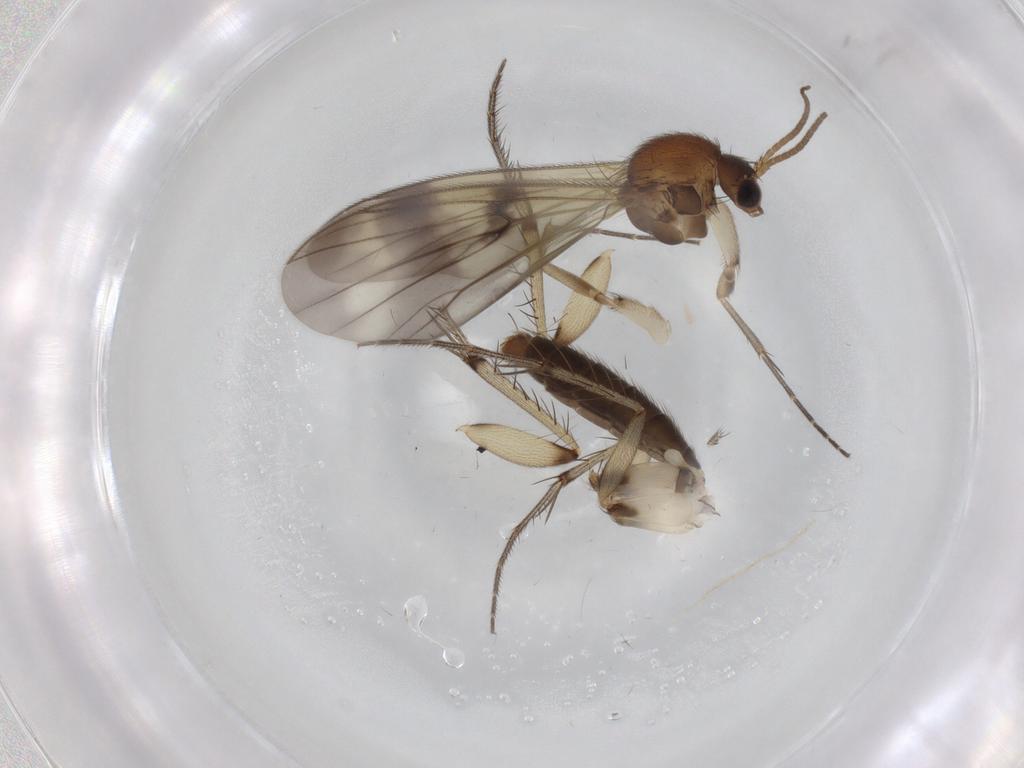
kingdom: Animalia
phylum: Arthropoda
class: Insecta
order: Diptera
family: Mycetophilidae
